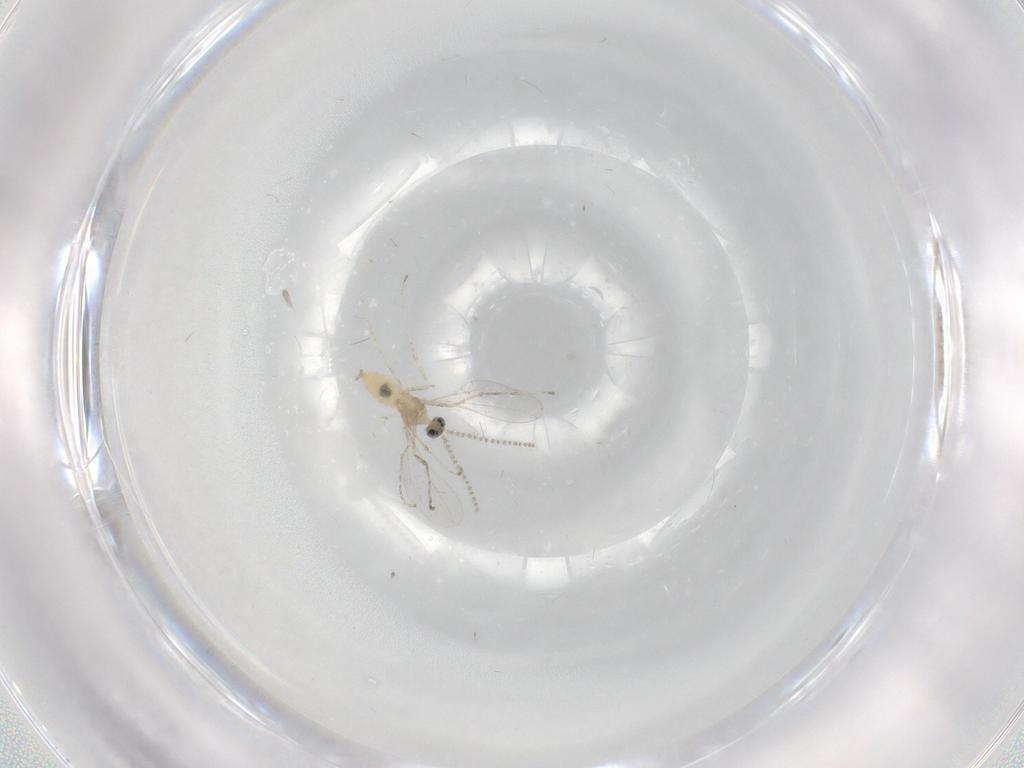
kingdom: Animalia
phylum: Arthropoda
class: Insecta
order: Diptera
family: Cecidomyiidae
